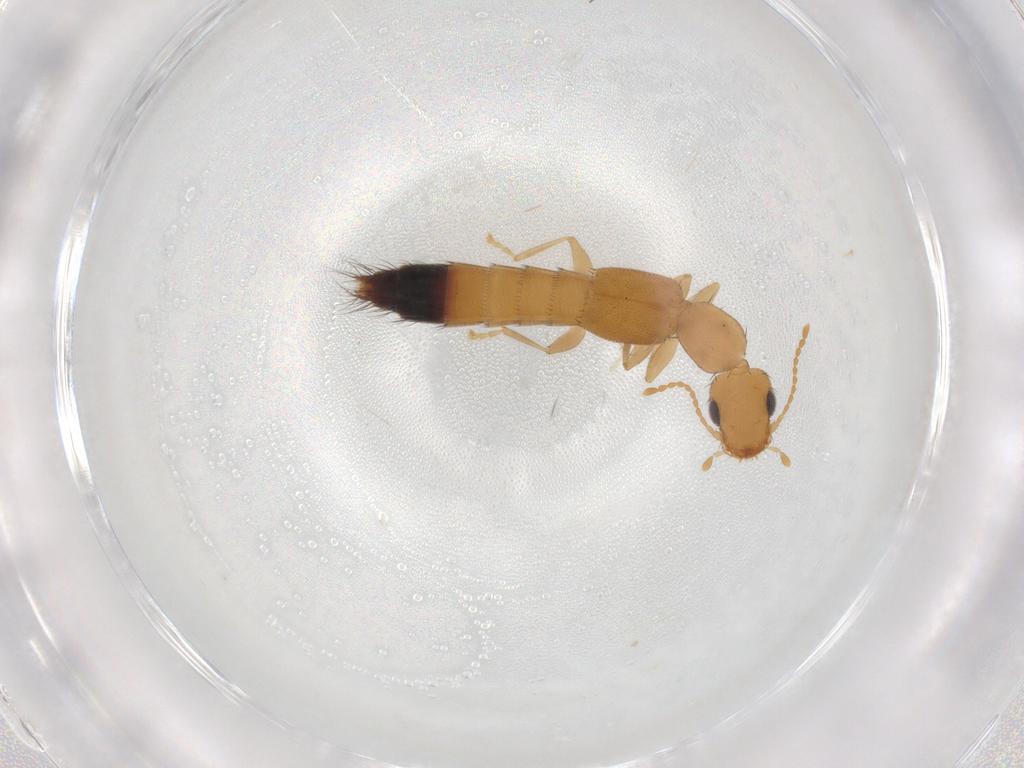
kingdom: Animalia
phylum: Arthropoda
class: Insecta
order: Coleoptera
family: Staphylinidae
